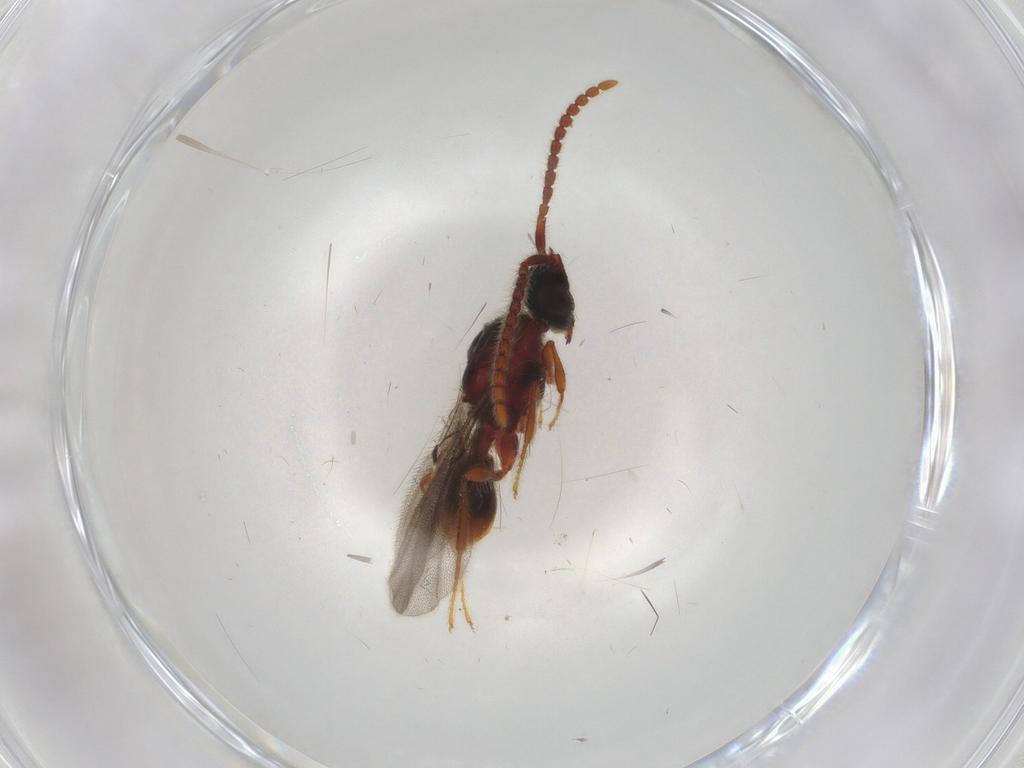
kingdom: Animalia
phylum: Arthropoda
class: Insecta
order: Hymenoptera
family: Diapriidae
